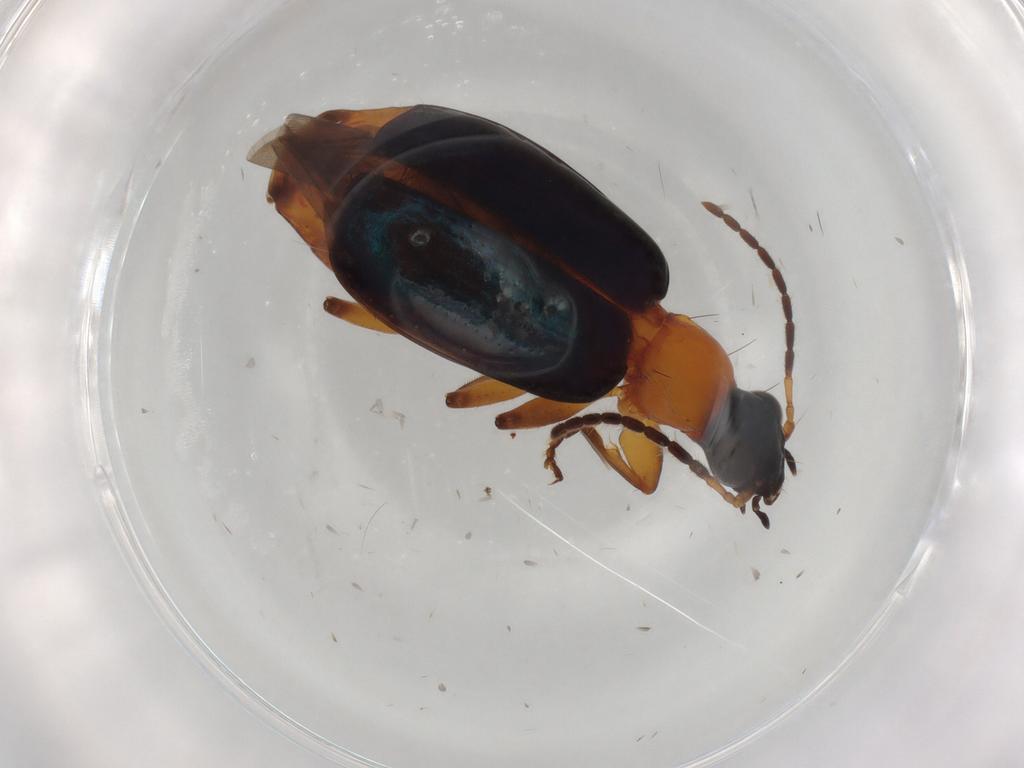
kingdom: Animalia
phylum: Arthropoda
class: Insecta
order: Coleoptera
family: Carabidae
